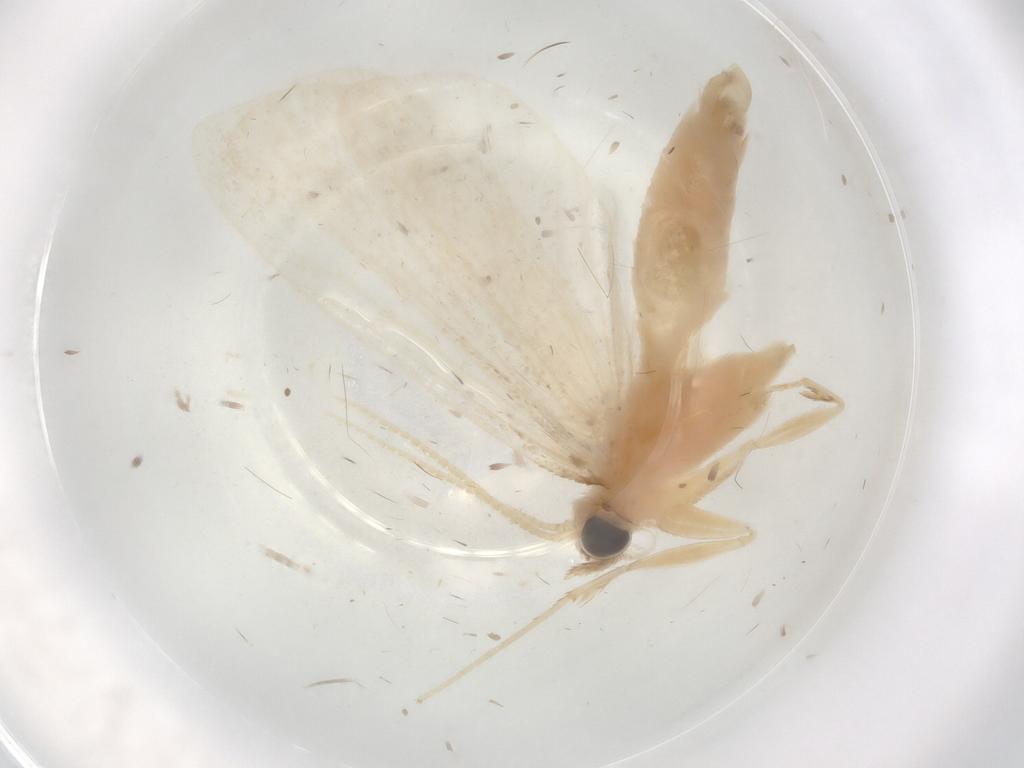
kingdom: Animalia
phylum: Arthropoda
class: Insecta
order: Lepidoptera
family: Crambidae
